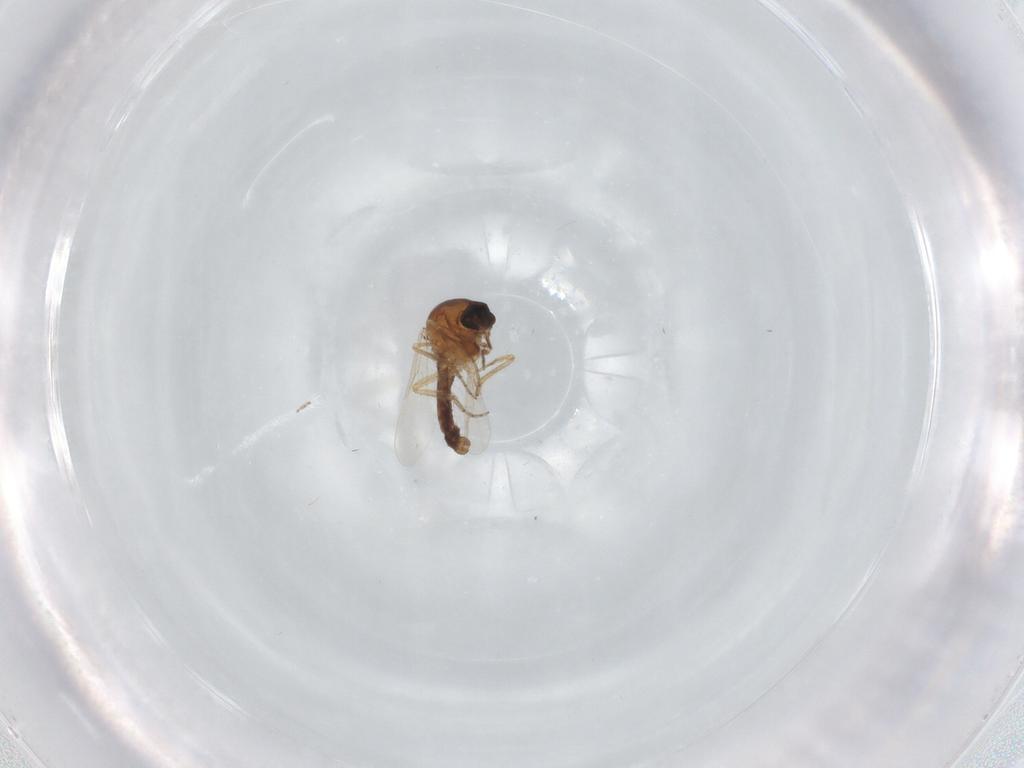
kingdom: Animalia
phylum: Arthropoda
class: Insecta
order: Diptera
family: Ceratopogonidae
